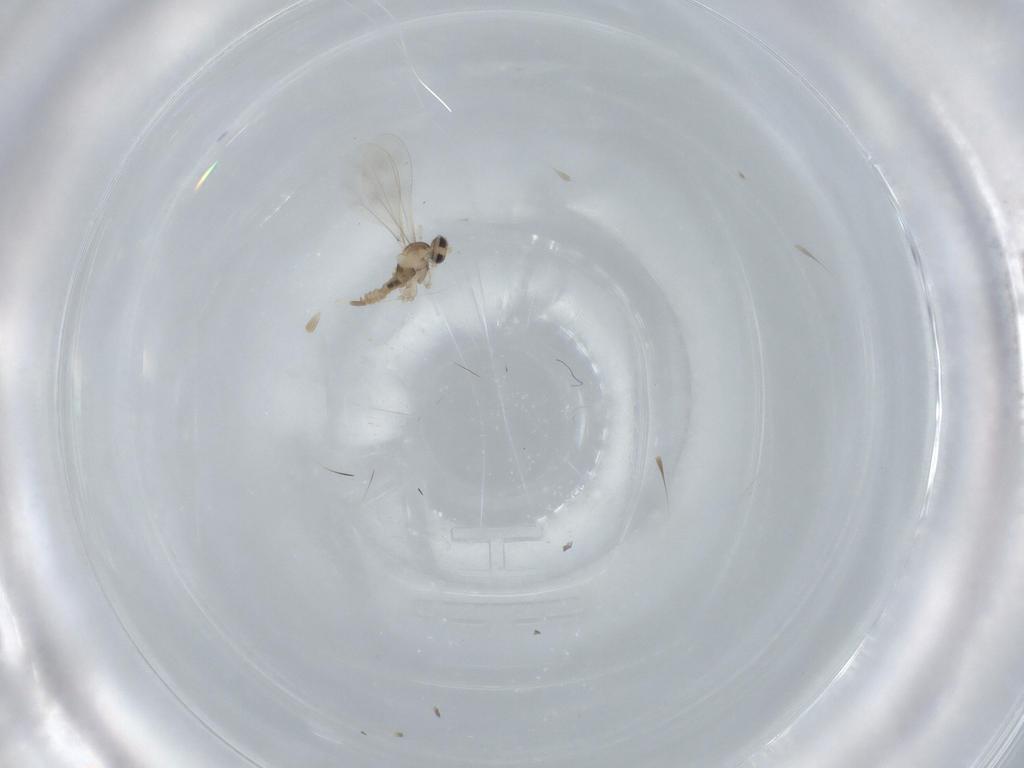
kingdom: Animalia
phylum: Arthropoda
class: Insecta
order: Diptera
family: Cecidomyiidae
